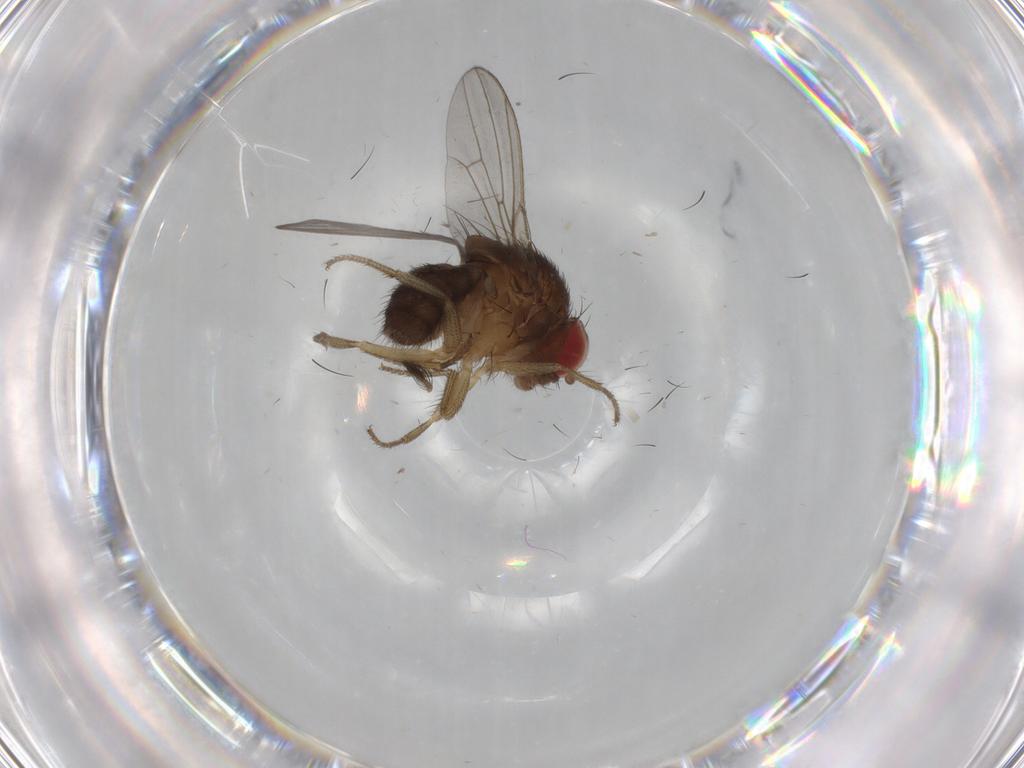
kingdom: Animalia
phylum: Arthropoda
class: Insecta
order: Diptera
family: Drosophilidae
